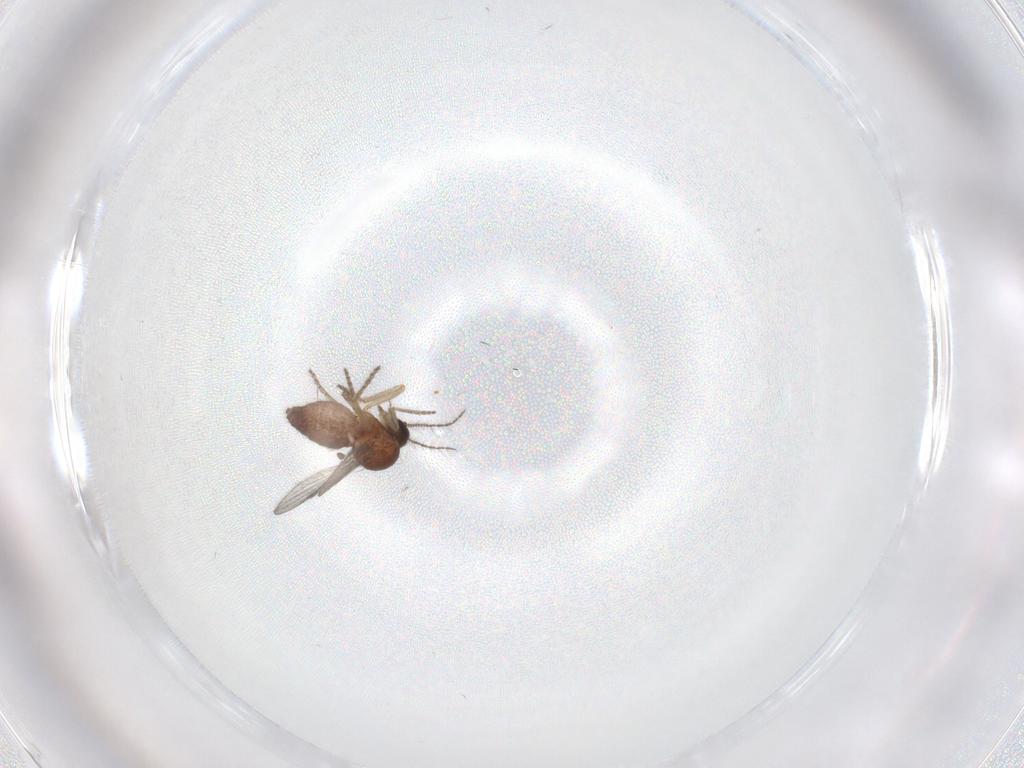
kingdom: Animalia
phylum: Arthropoda
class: Insecta
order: Diptera
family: Ceratopogonidae
